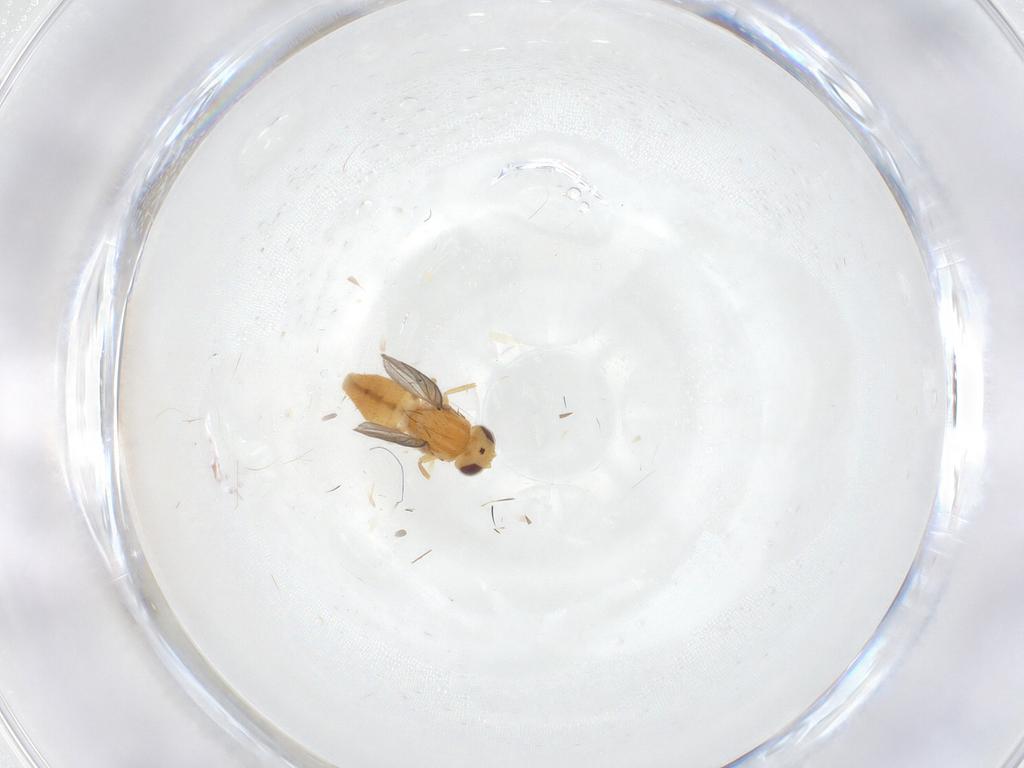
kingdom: Animalia
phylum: Arthropoda
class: Insecta
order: Diptera
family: Chloropidae
